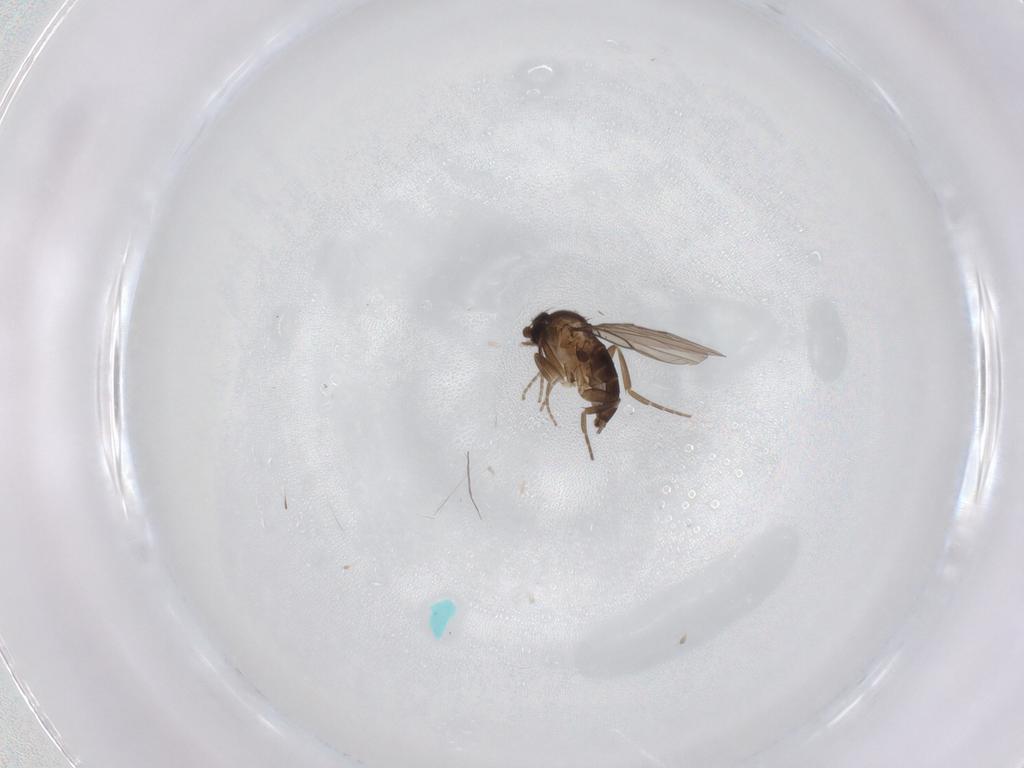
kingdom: Animalia
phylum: Arthropoda
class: Insecta
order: Diptera
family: Phoridae
